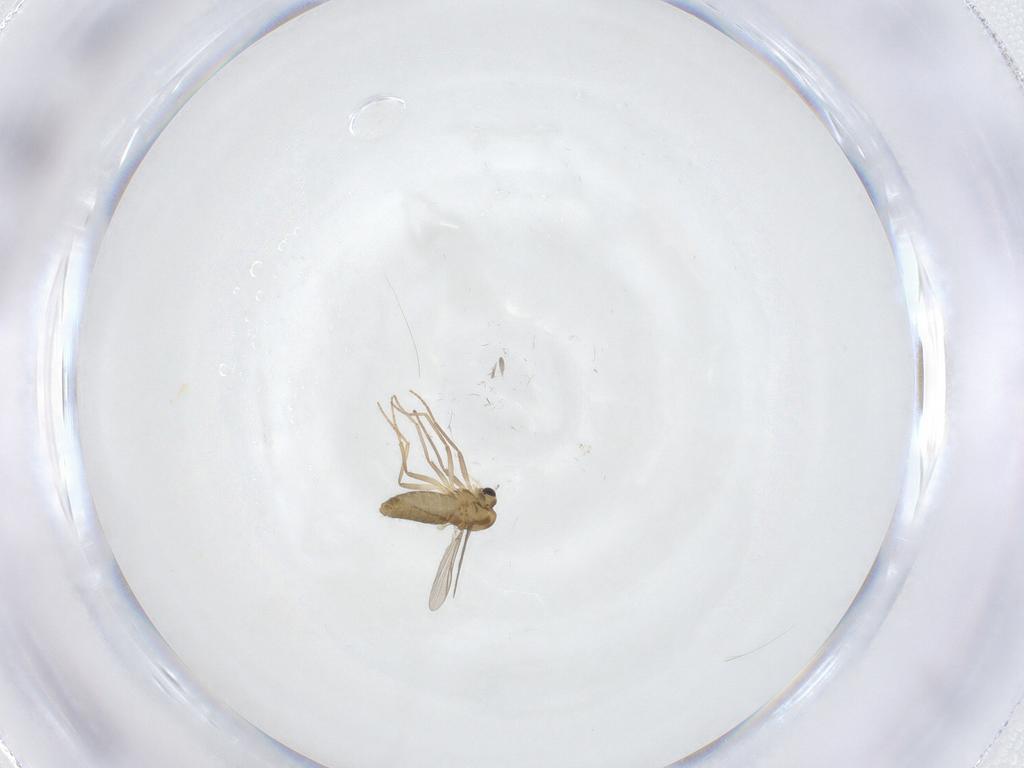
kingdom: Animalia
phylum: Arthropoda
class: Insecta
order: Diptera
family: Chironomidae
